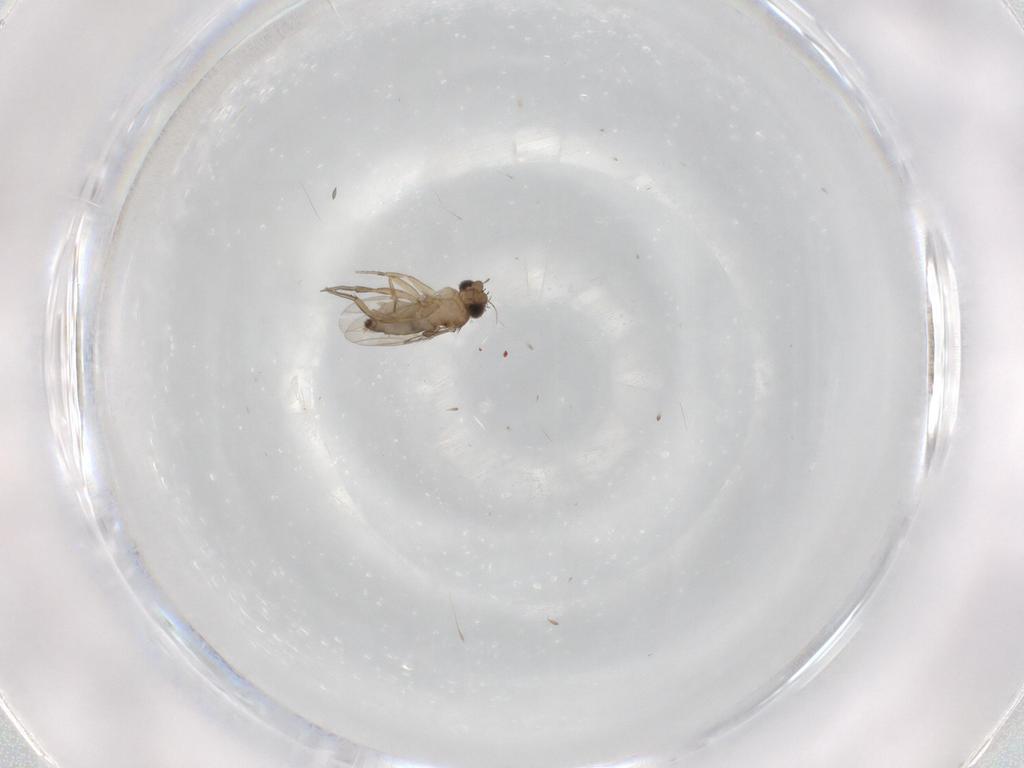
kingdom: Animalia
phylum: Arthropoda
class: Insecta
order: Diptera
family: Phoridae
